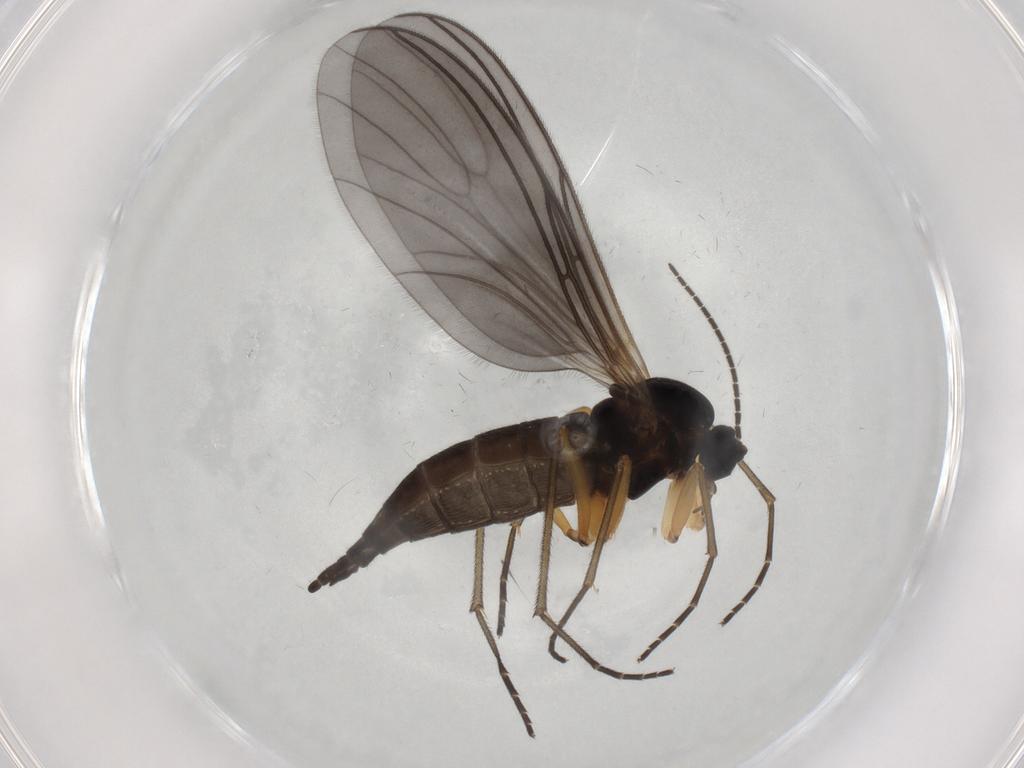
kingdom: Animalia
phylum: Arthropoda
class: Insecta
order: Diptera
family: Sciaridae
